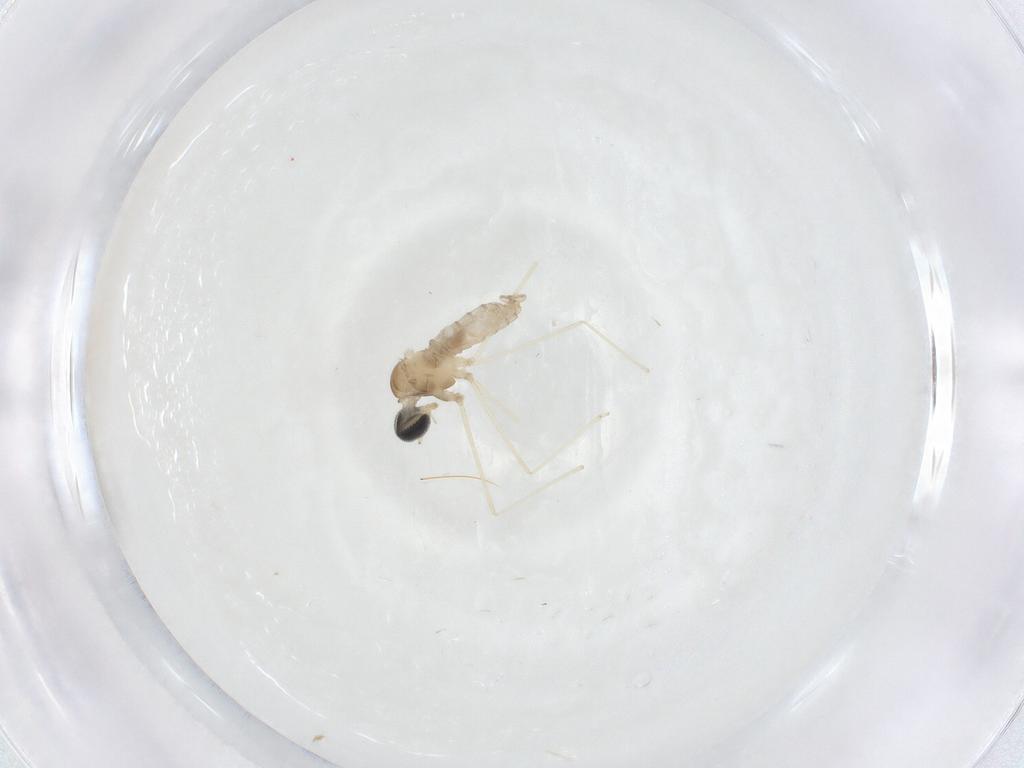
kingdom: Animalia
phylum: Arthropoda
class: Insecta
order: Diptera
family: Cecidomyiidae
